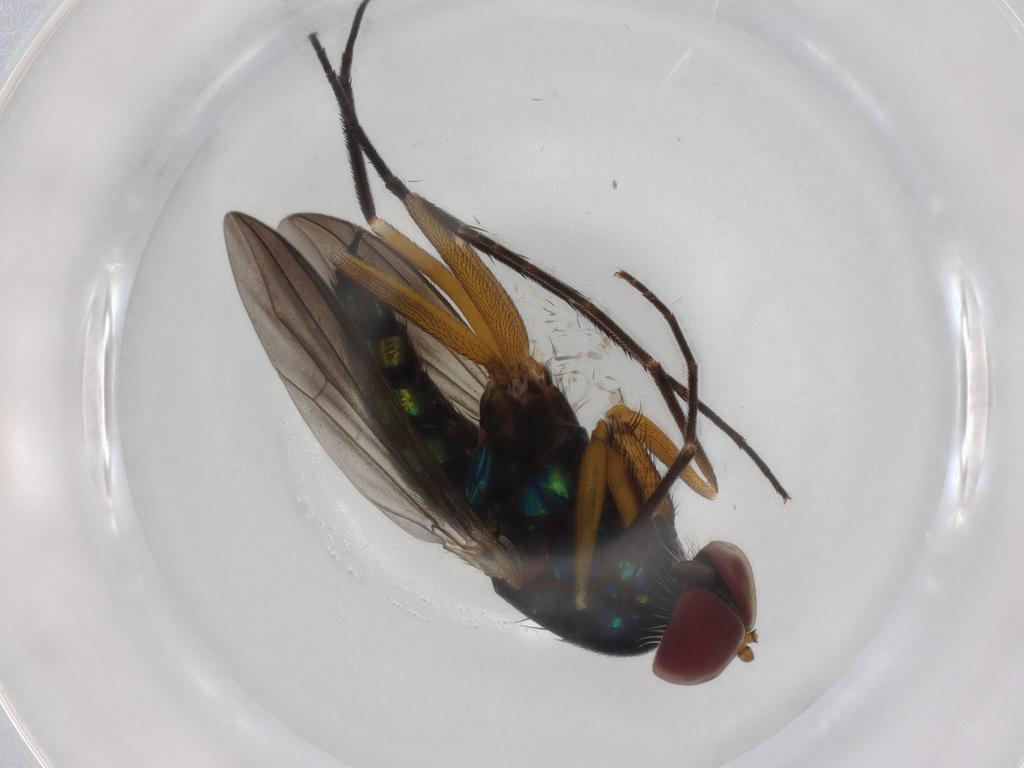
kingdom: Animalia
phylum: Arthropoda
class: Insecta
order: Diptera
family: Dolichopodidae
